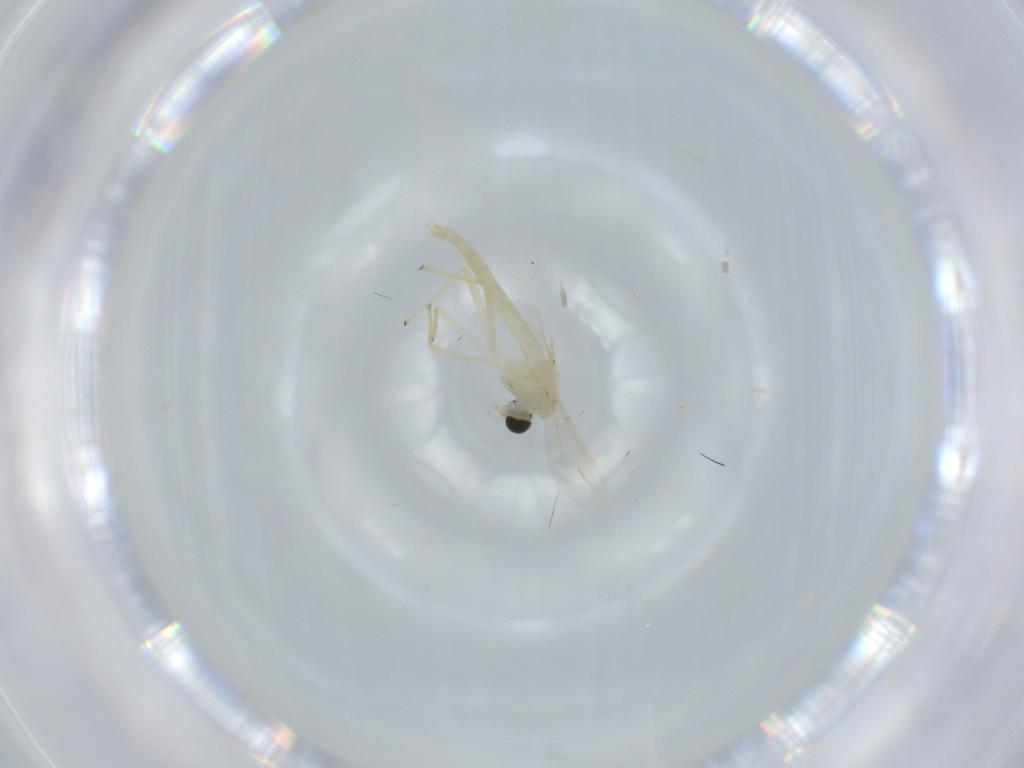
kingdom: Animalia
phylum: Arthropoda
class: Insecta
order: Diptera
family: Chironomidae
